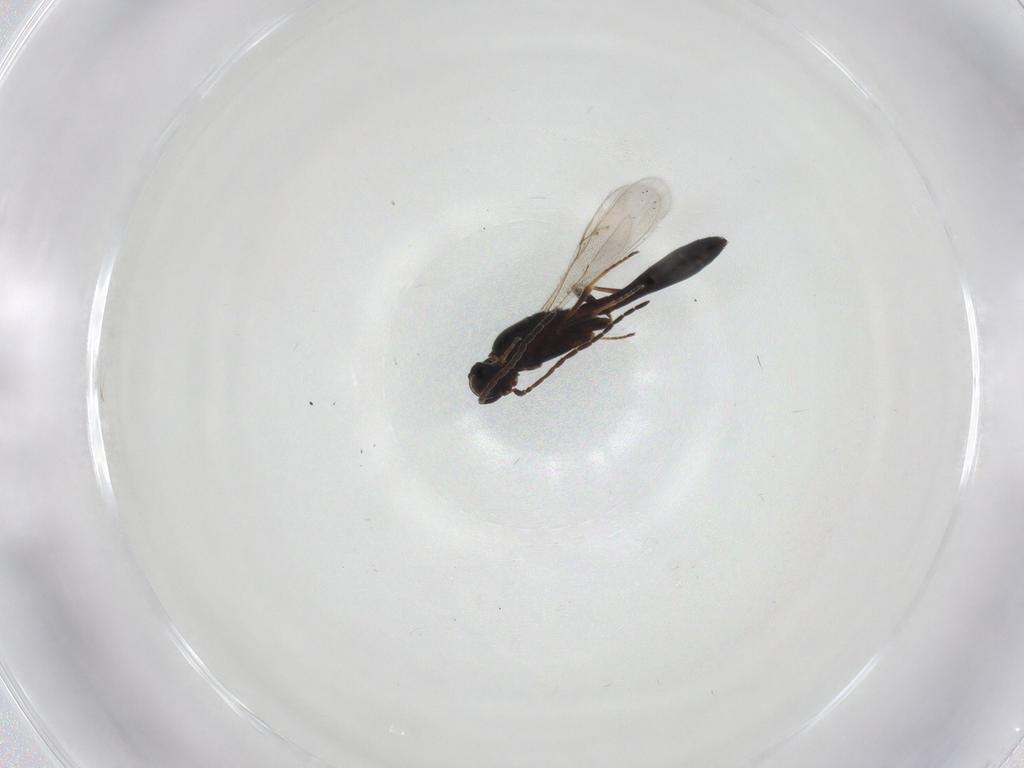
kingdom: Animalia
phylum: Arthropoda
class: Insecta
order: Hymenoptera
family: Scelionidae
